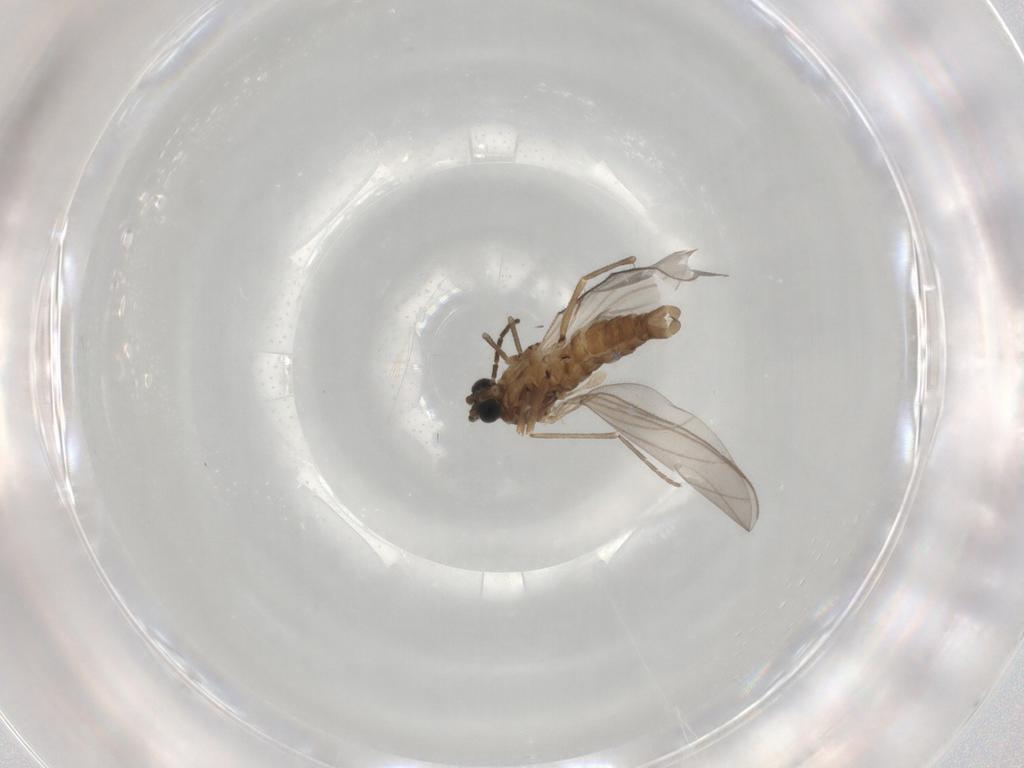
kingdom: Animalia
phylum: Arthropoda
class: Insecta
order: Diptera
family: Sciaridae
